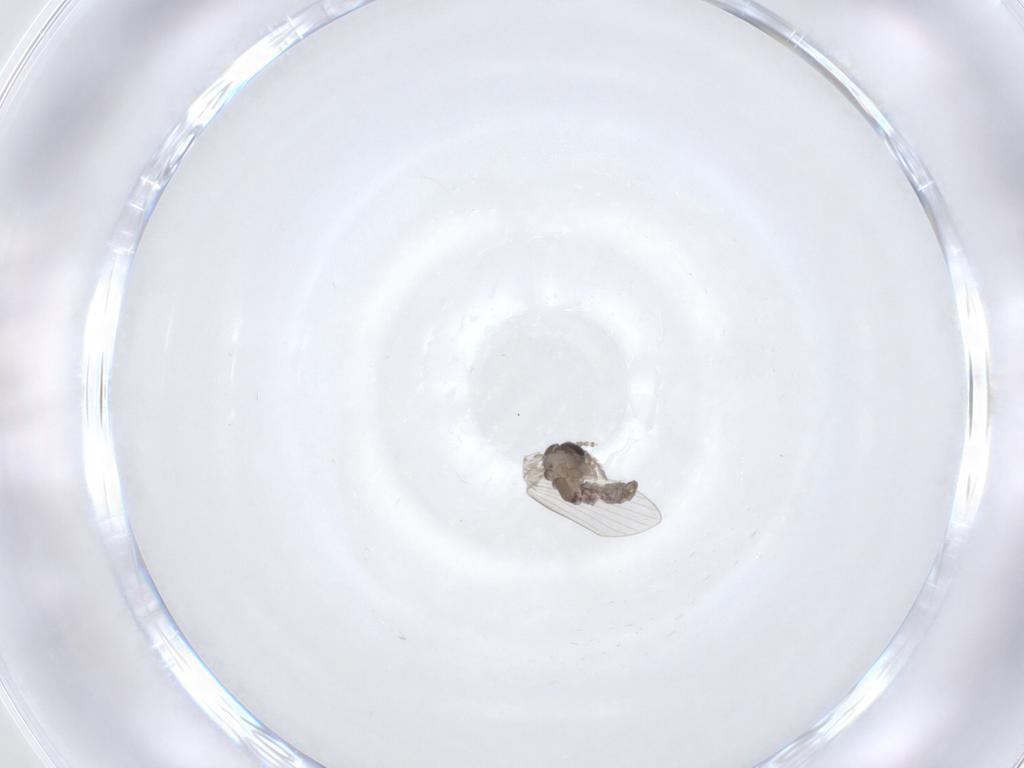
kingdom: Animalia
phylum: Arthropoda
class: Insecta
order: Diptera
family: Psychodidae
